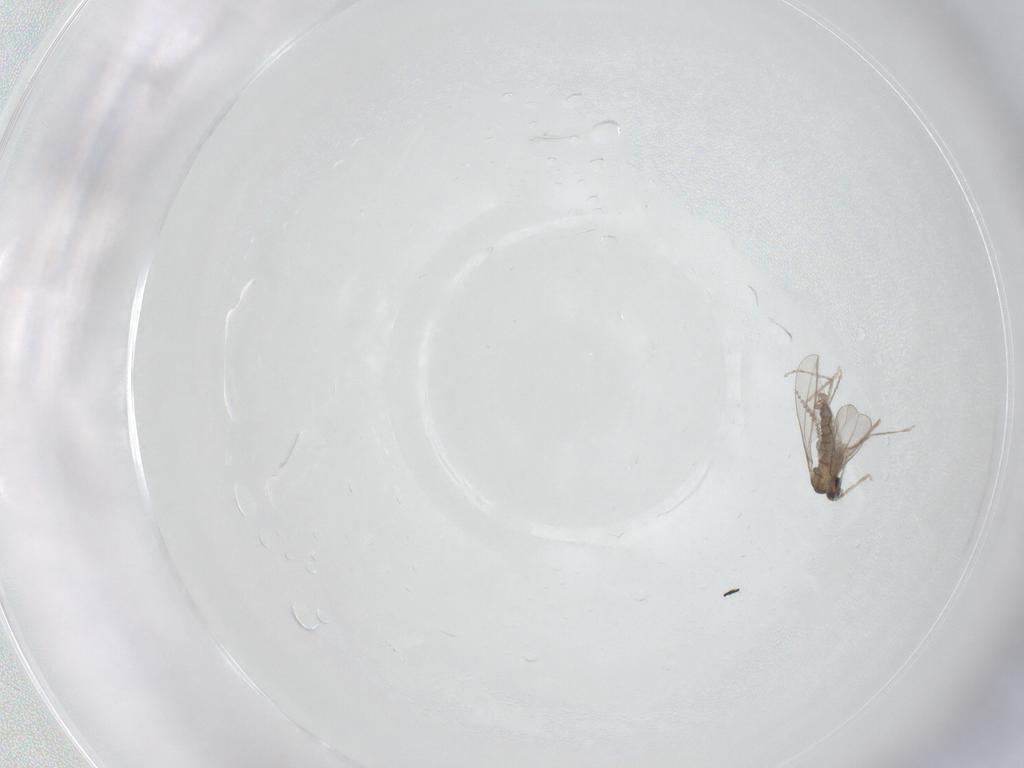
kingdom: Animalia
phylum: Arthropoda
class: Insecta
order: Diptera
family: Cecidomyiidae
